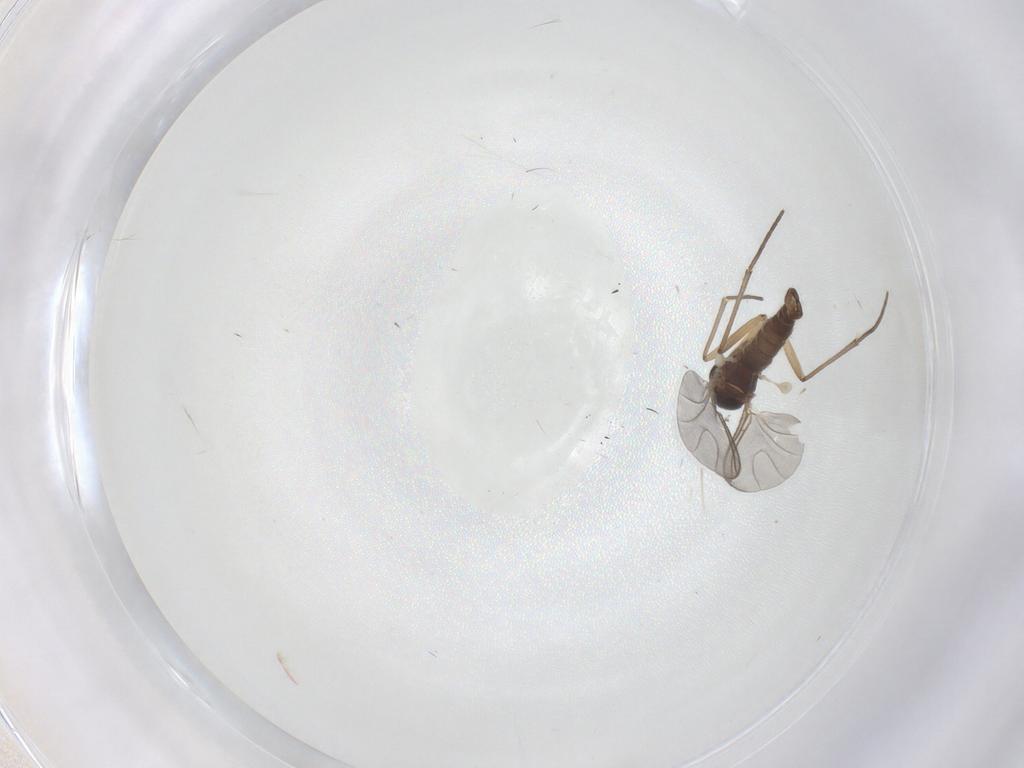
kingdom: Animalia
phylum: Arthropoda
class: Insecta
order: Diptera
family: Sciaridae
